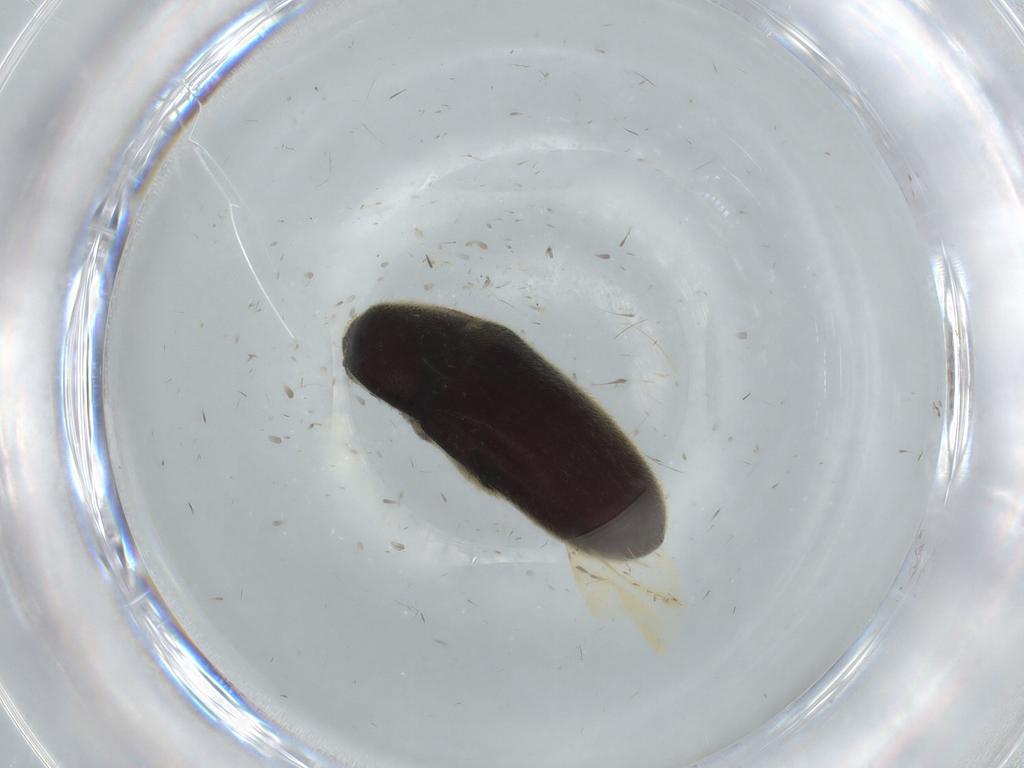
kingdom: Animalia
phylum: Arthropoda
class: Insecta
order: Coleoptera
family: Throscidae
